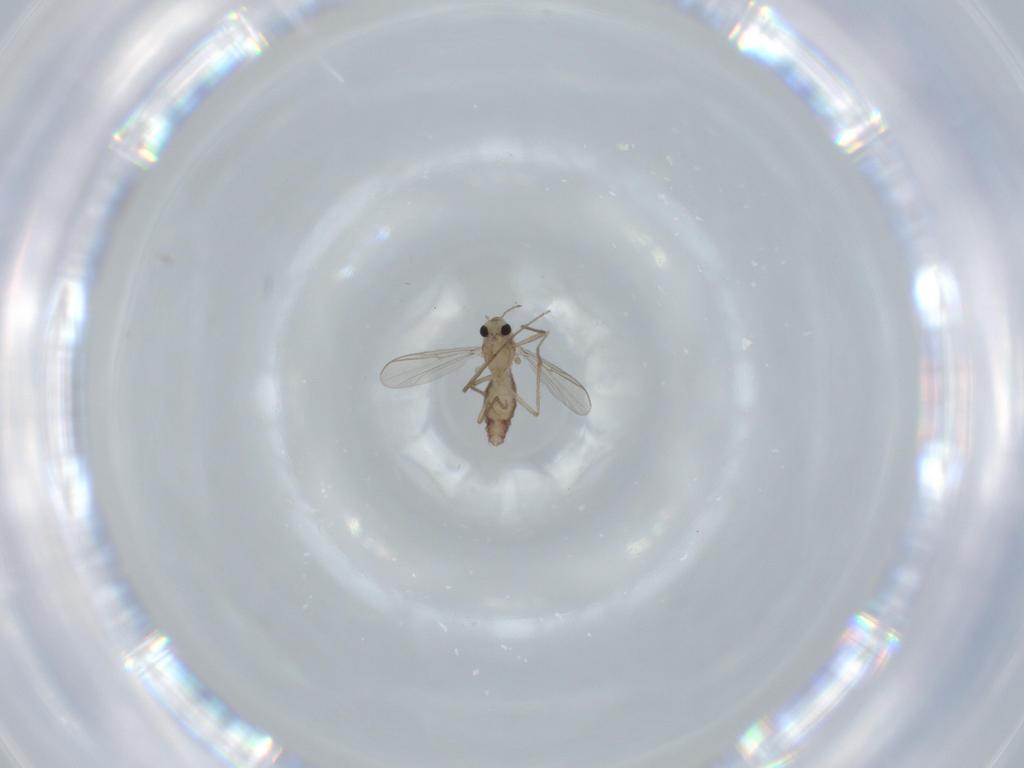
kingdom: Animalia
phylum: Arthropoda
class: Insecta
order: Diptera
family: Chironomidae
